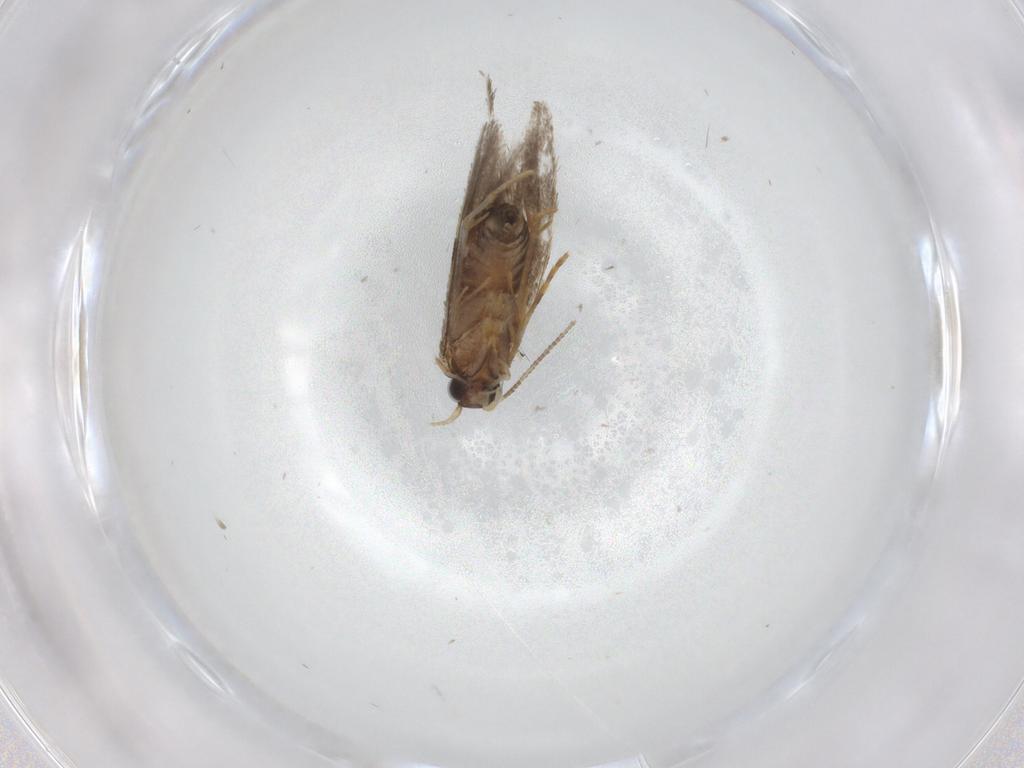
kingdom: Animalia
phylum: Arthropoda
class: Insecta
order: Lepidoptera
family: Tineidae
